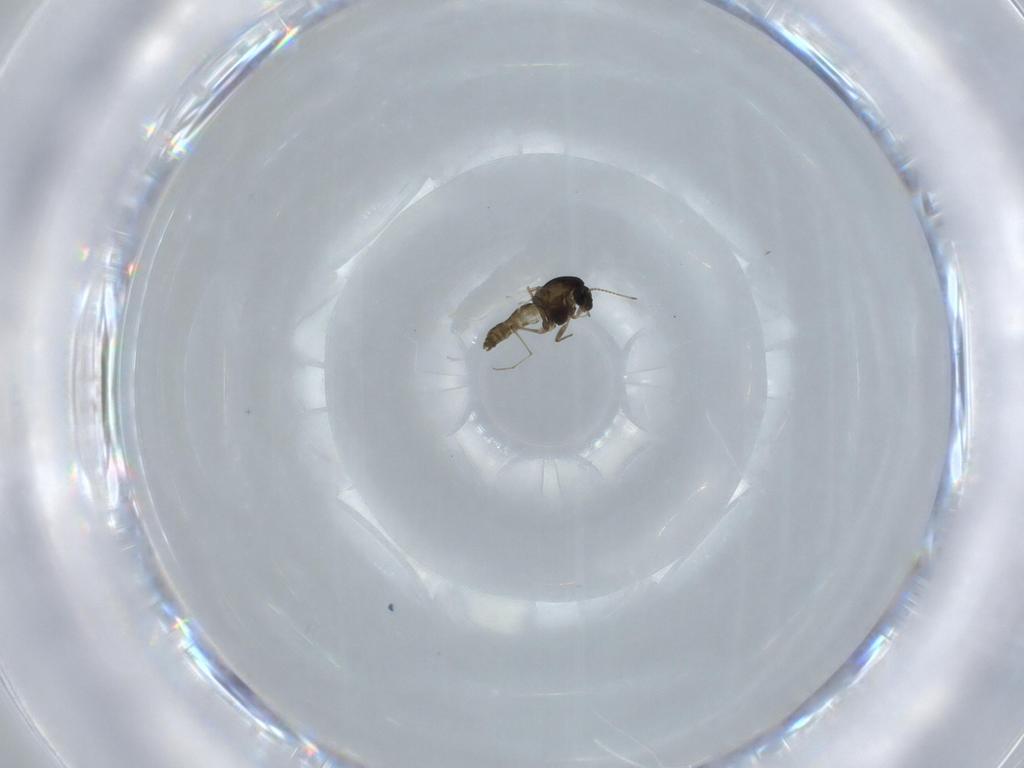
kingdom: Animalia
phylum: Arthropoda
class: Insecta
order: Diptera
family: Chironomidae
